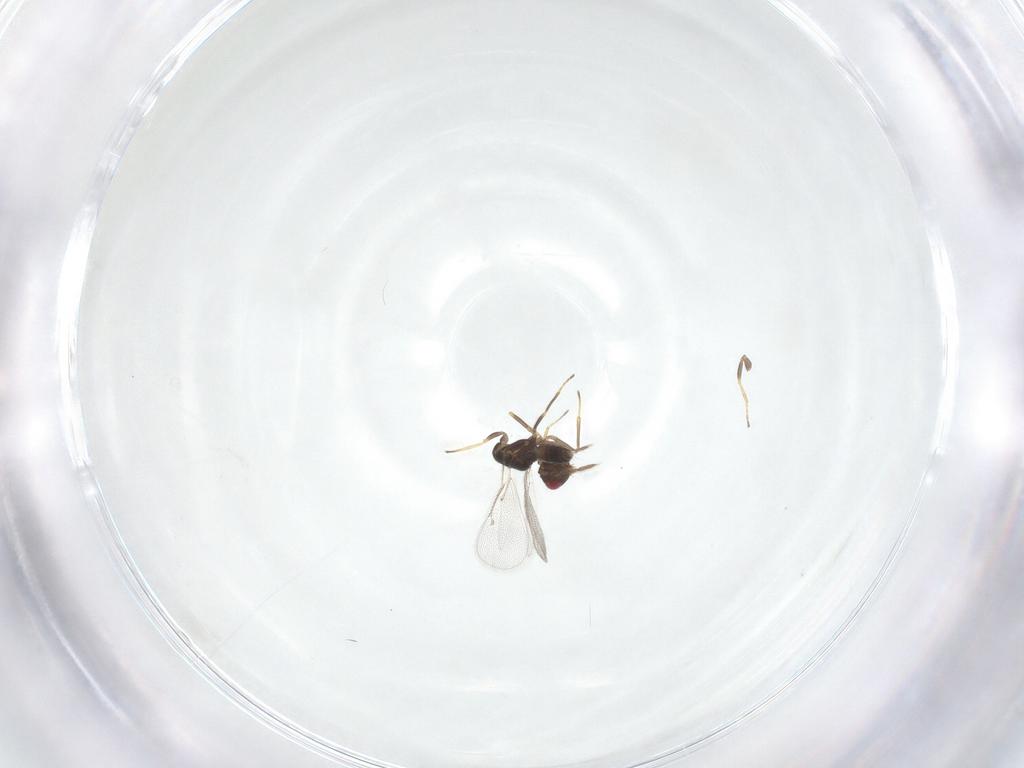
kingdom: Animalia
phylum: Arthropoda
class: Insecta
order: Hymenoptera
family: Eulophidae
